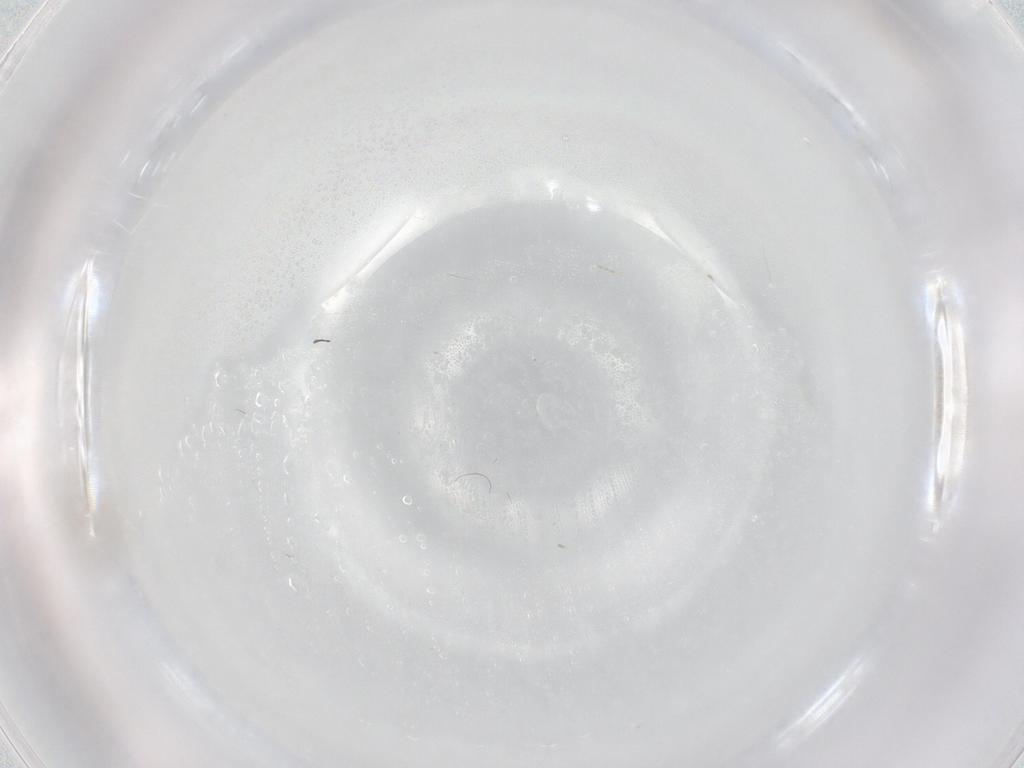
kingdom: Animalia
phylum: Arthropoda
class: Insecta
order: Diptera
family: Cecidomyiidae
